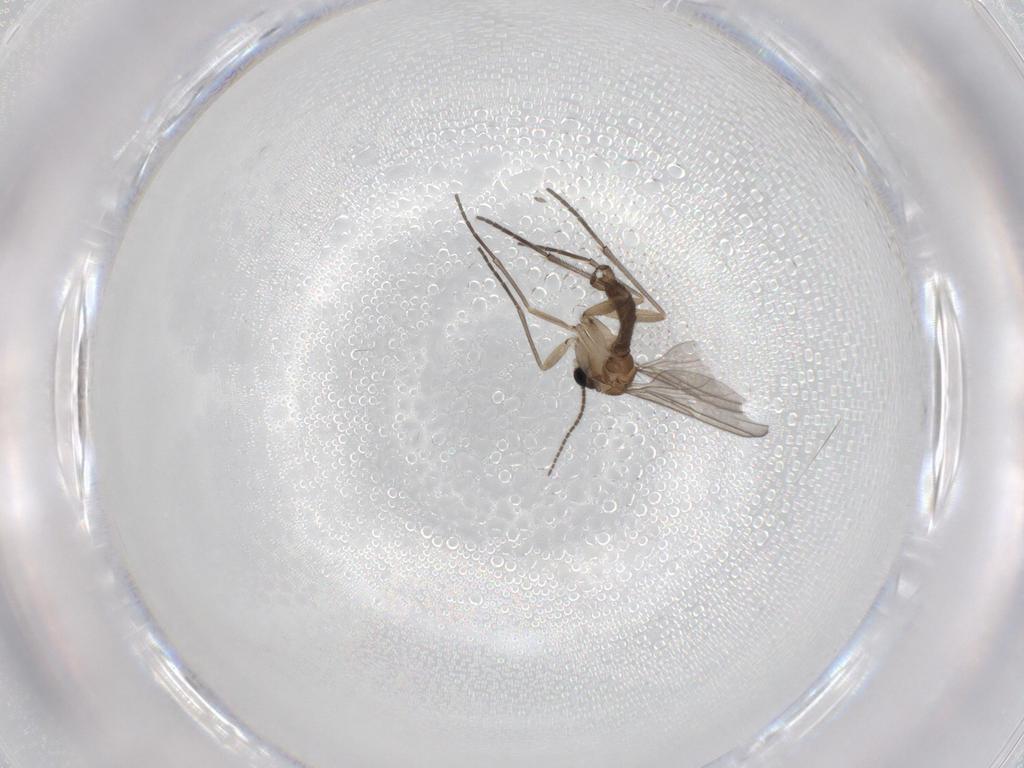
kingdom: Animalia
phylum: Arthropoda
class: Insecta
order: Diptera
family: Sciaridae
